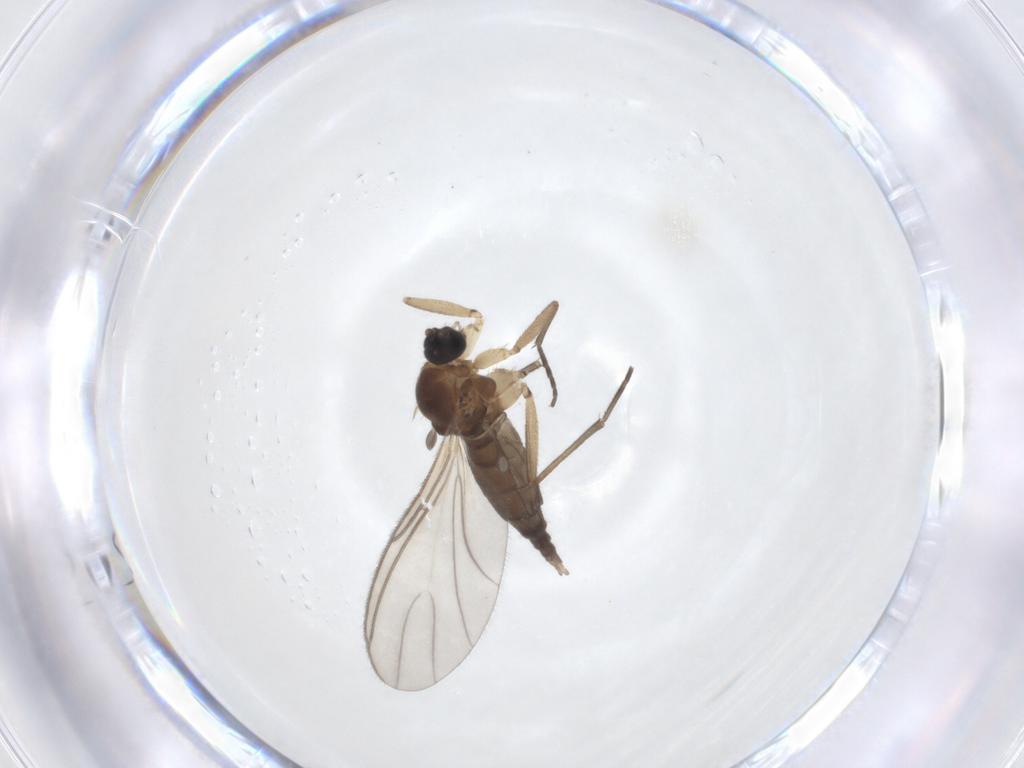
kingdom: Animalia
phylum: Arthropoda
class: Insecta
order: Diptera
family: Sciaridae
